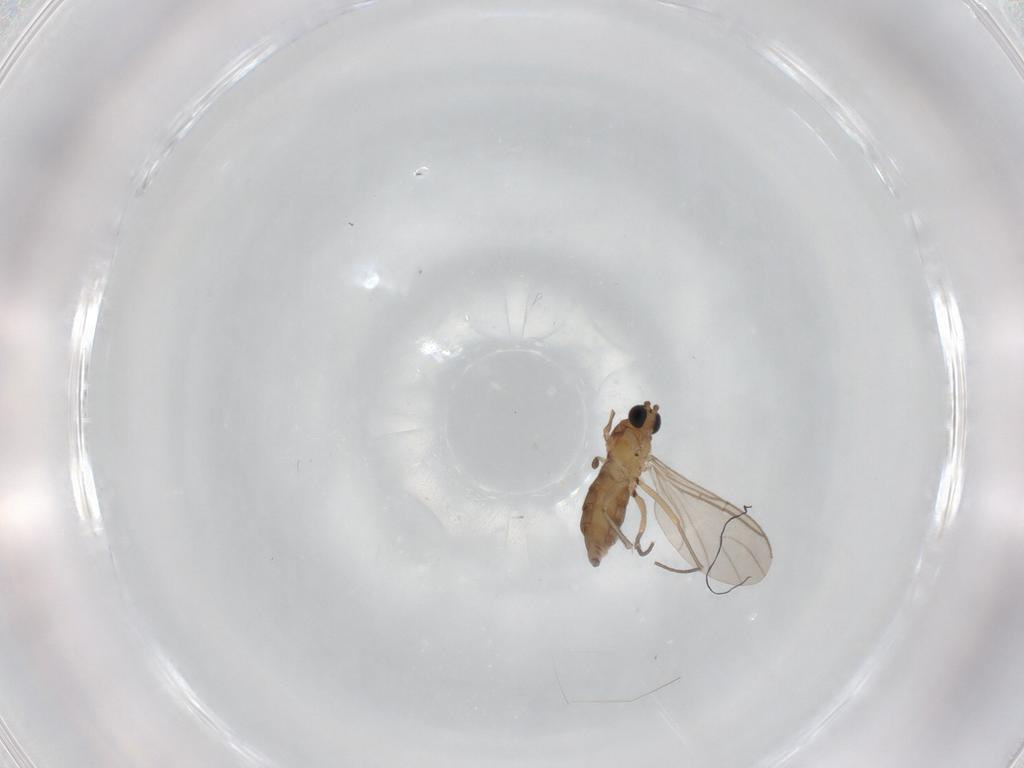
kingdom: Animalia
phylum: Arthropoda
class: Insecta
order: Diptera
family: Sciaridae
